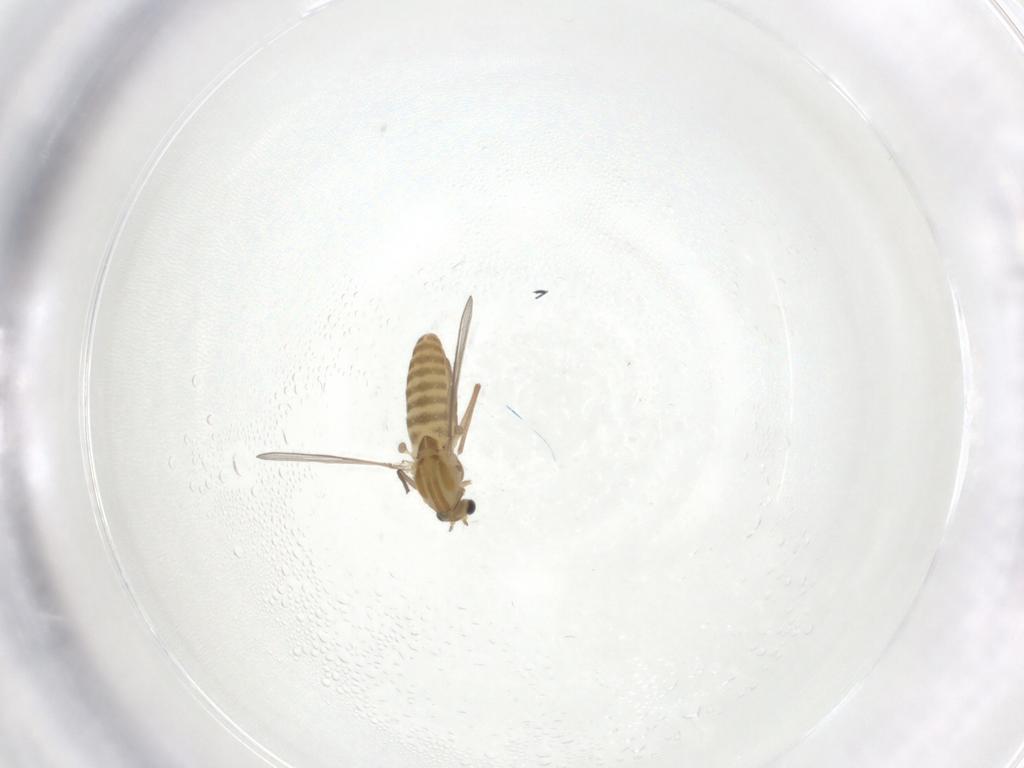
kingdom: Animalia
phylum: Arthropoda
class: Insecta
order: Diptera
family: Chironomidae
